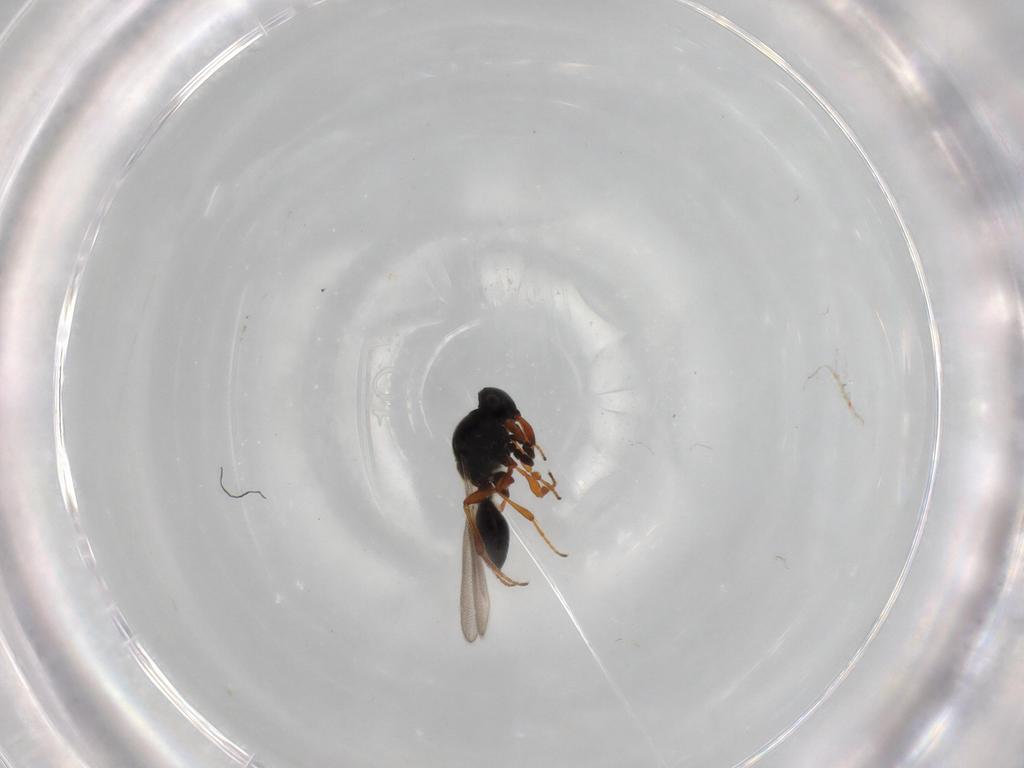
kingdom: Animalia
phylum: Arthropoda
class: Insecta
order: Hymenoptera
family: Platygastridae
